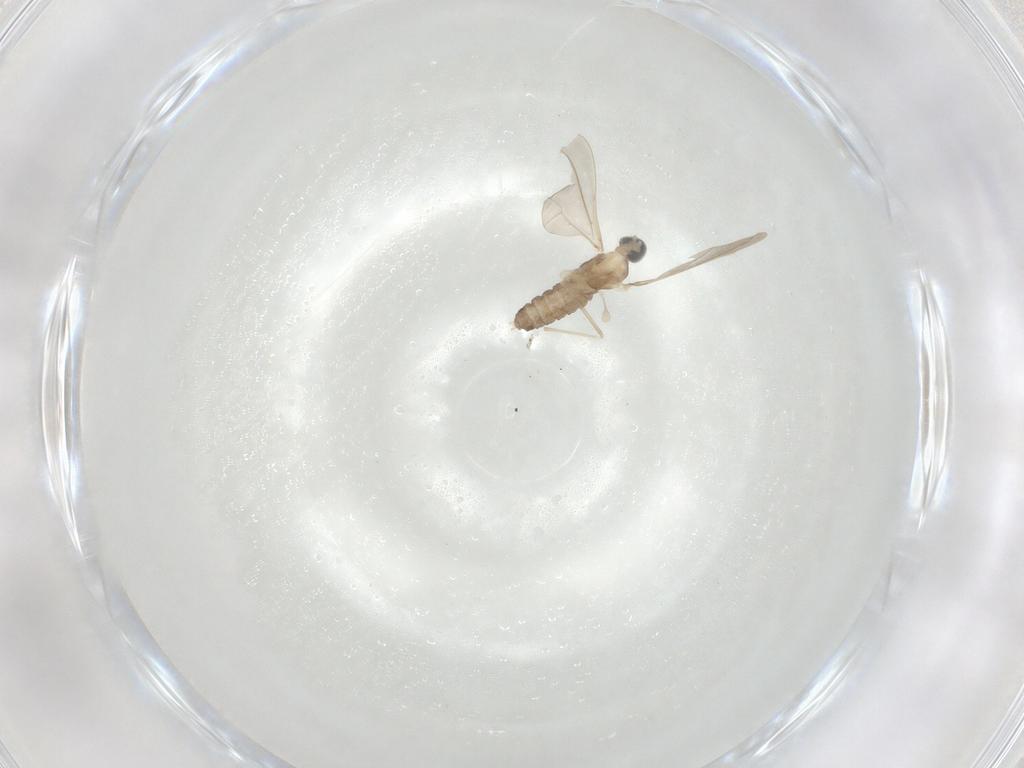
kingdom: Animalia
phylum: Arthropoda
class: Insecta
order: Diptera
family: Cecidomyiidae
